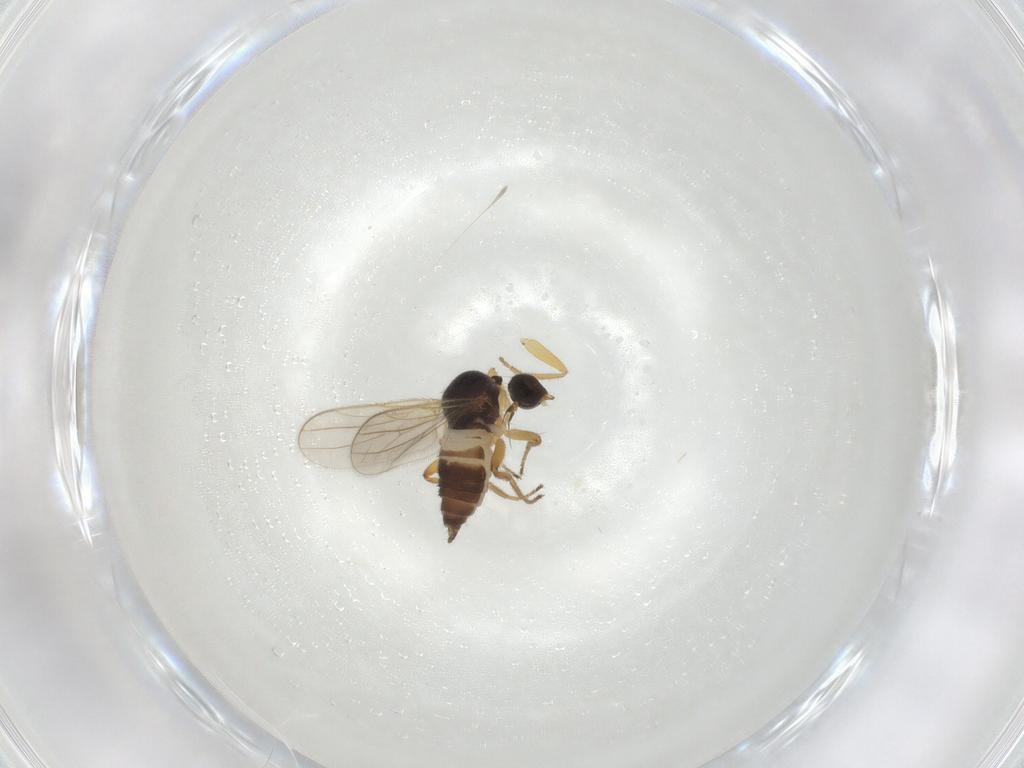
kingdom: Animalia
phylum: Arthropoda
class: Insecta
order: Diptera
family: Hybotidae
